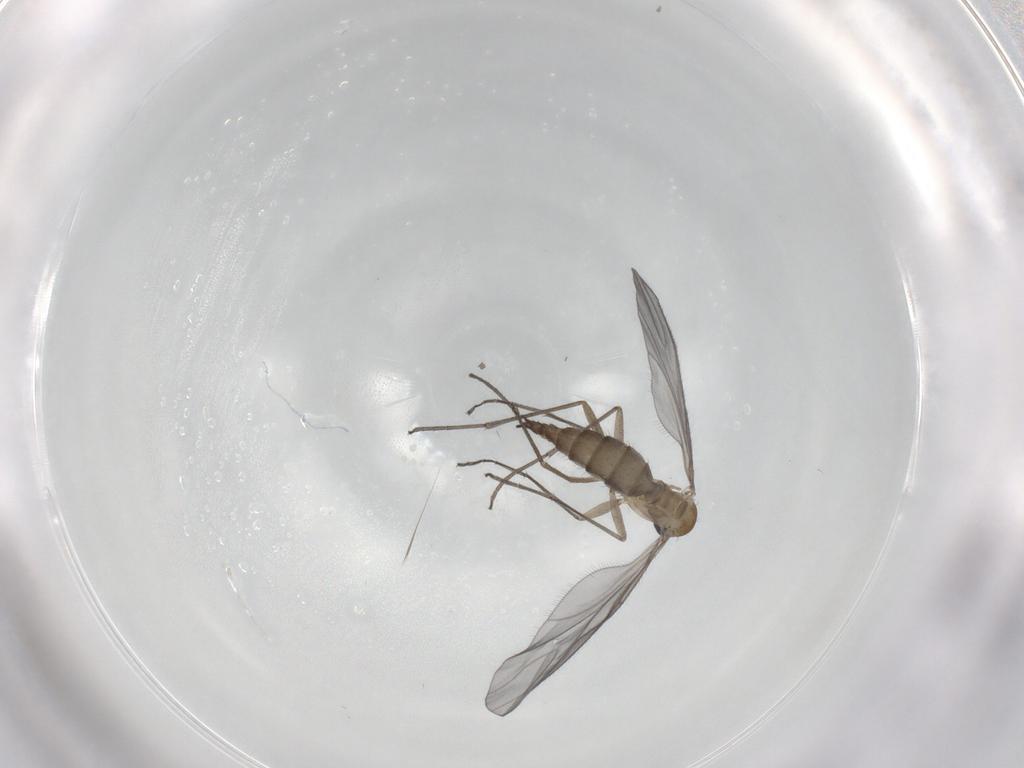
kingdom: Animalia
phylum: Arthropoda
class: Insecta
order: Diptera
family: Sciaridae
